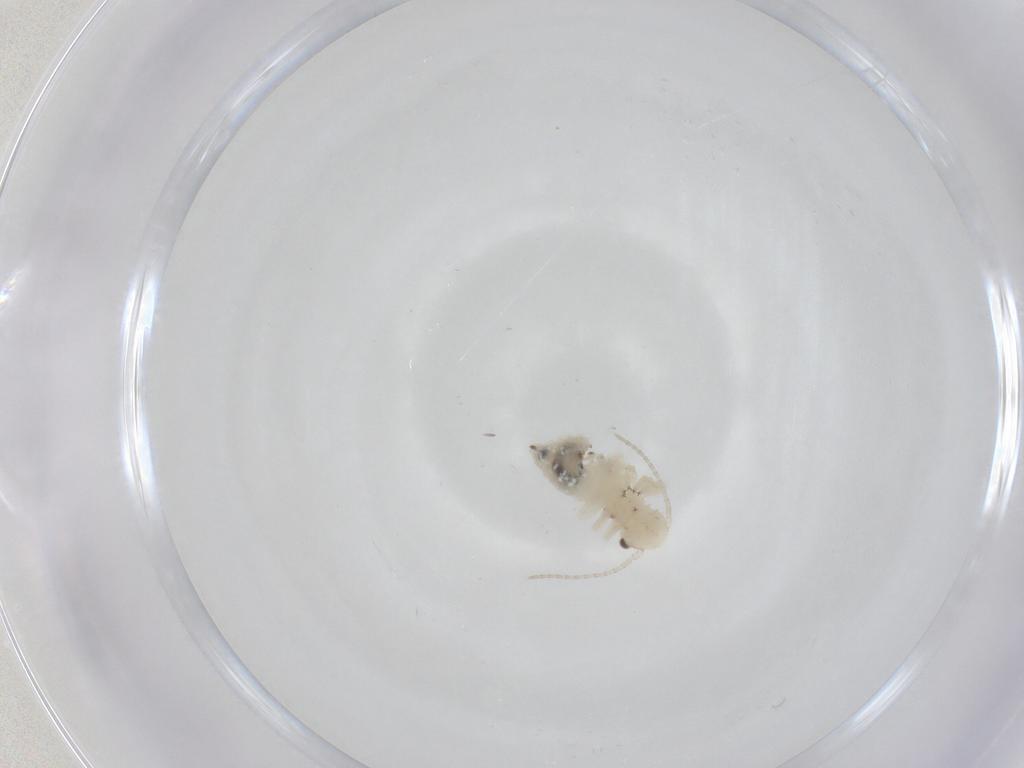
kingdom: Animalia
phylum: Arthropoda
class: Insecta
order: Psocodea
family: Amphipsocidae
